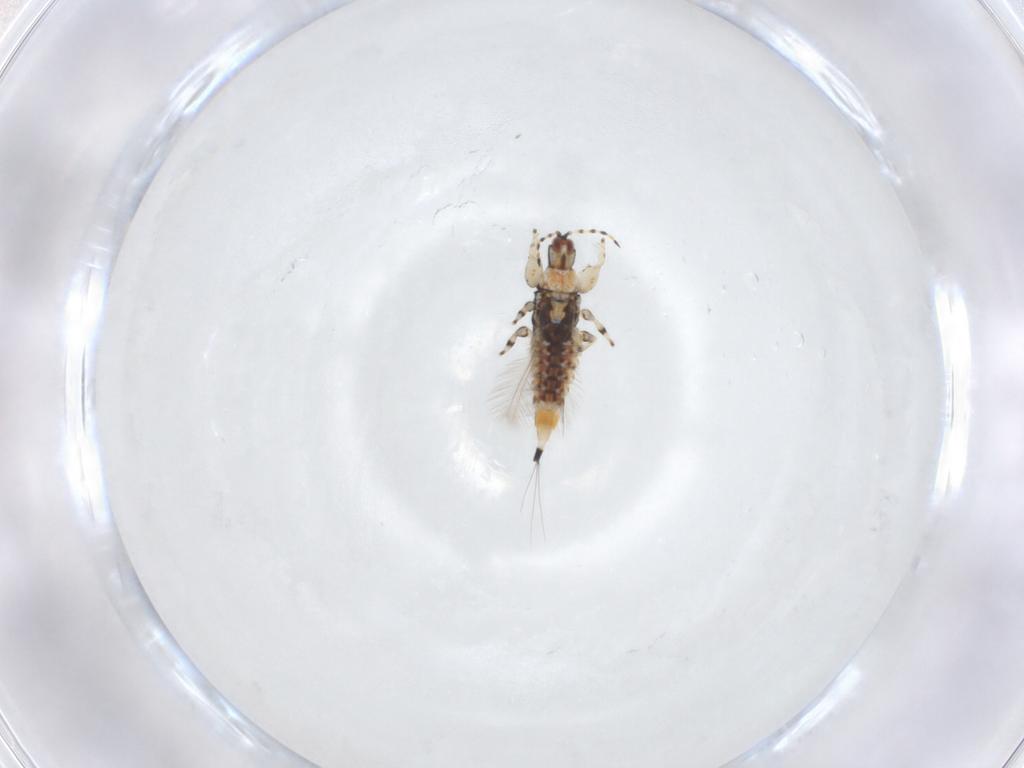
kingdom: Animalia
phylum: Arthropoda
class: Insecta
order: Thysanoptera
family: Phlaeothripidae
